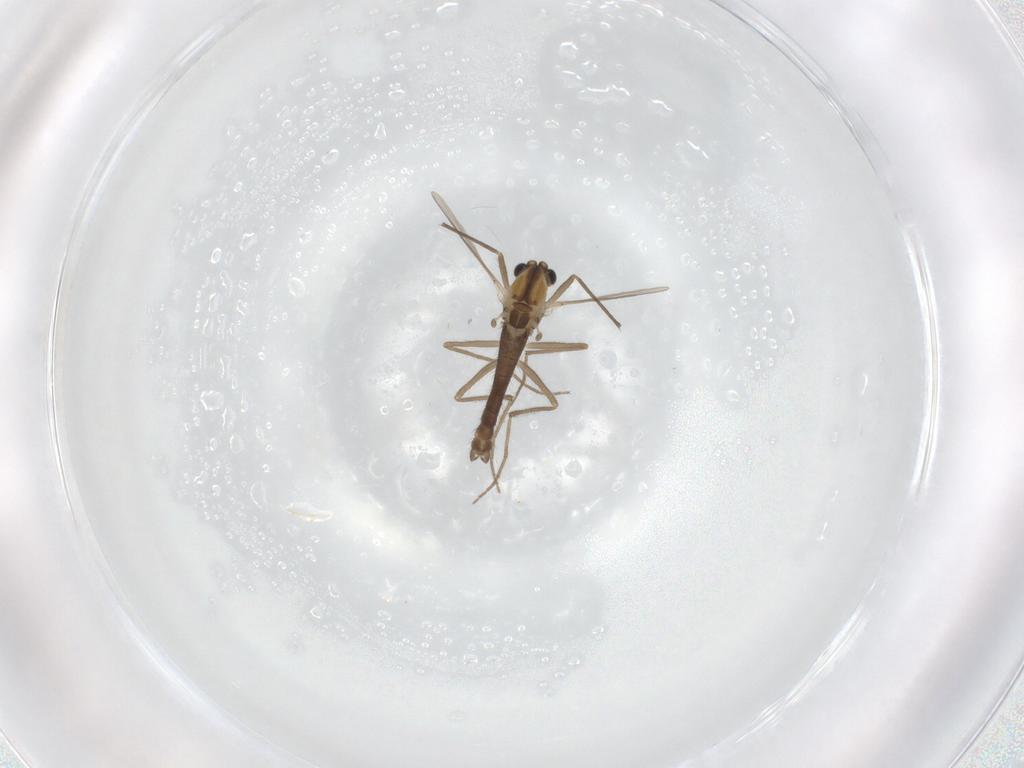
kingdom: Animalia
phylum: Arthropoda
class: Insecta
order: Diptera
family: Chironomidae
